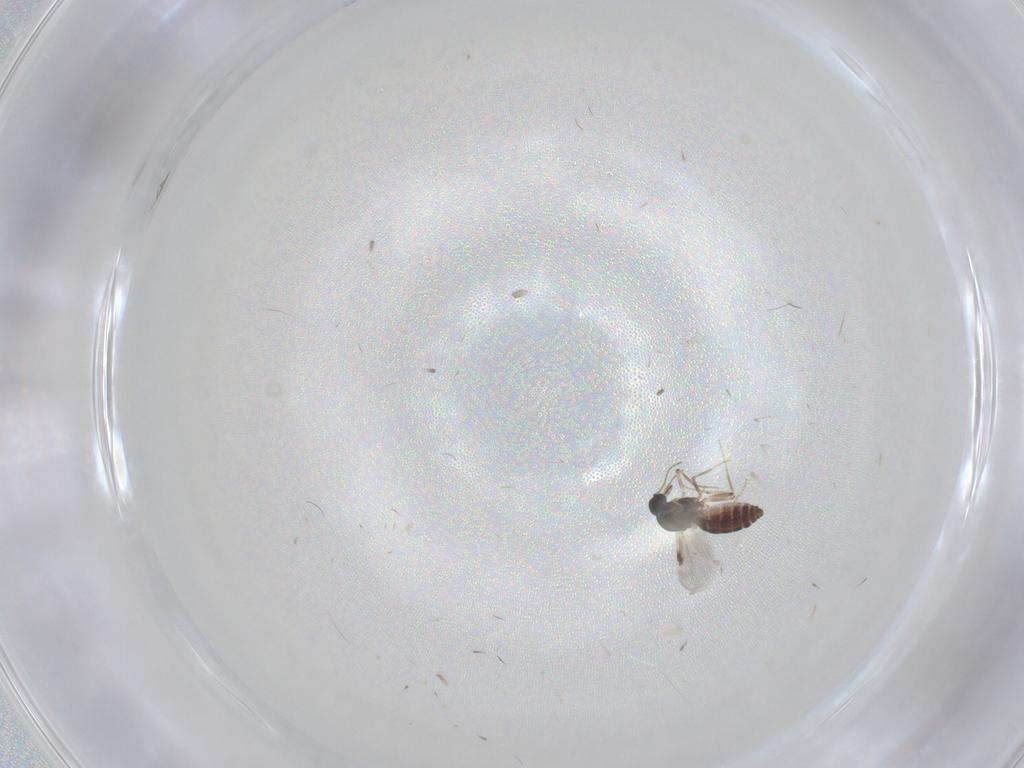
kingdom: Animalia
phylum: Arthropoda
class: Insecta
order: Diptera
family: Chironomidae
